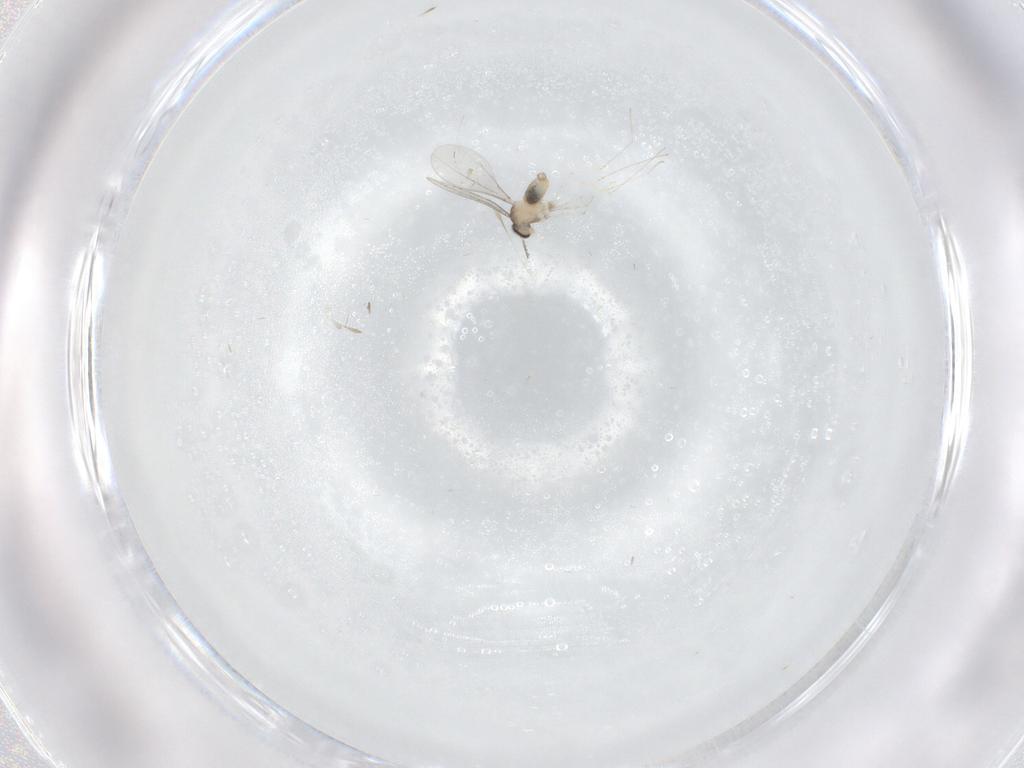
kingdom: Animalia
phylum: Arthropoda
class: Insecta
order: Diptera
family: Cecidomyiidae
